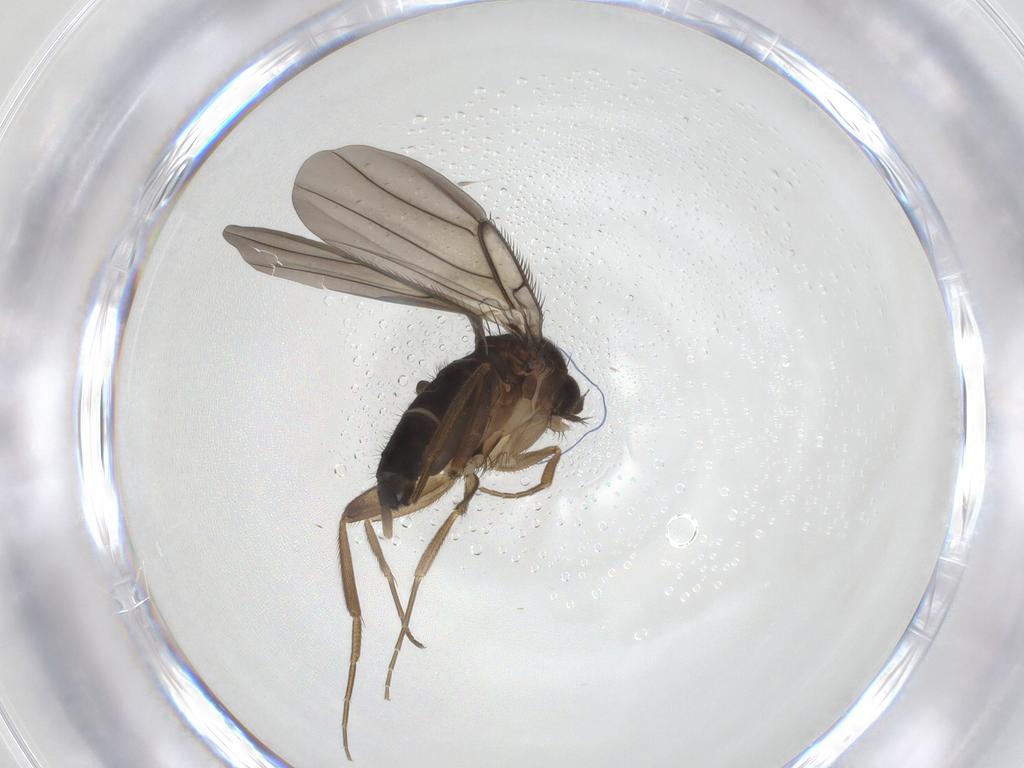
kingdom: Animalia
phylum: Arthropoda
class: Insecta
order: Diptera
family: Phoridae
